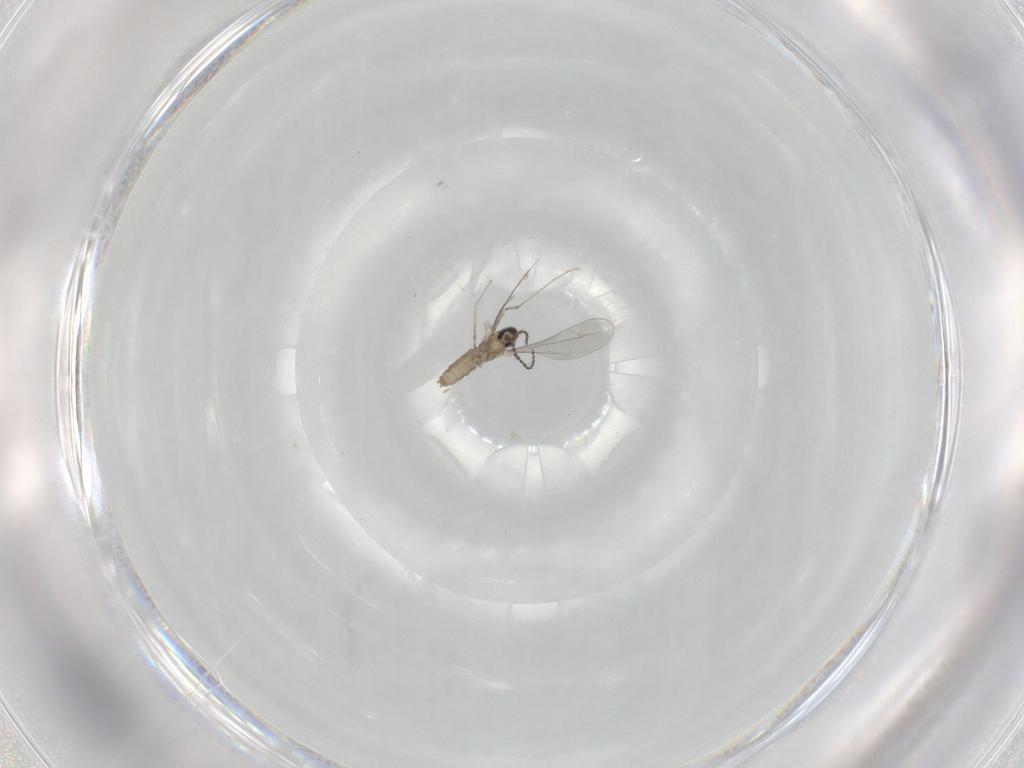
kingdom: Animalia
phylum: Arthropoda
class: Insecta
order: Diptera
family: Cecidomyiidae
